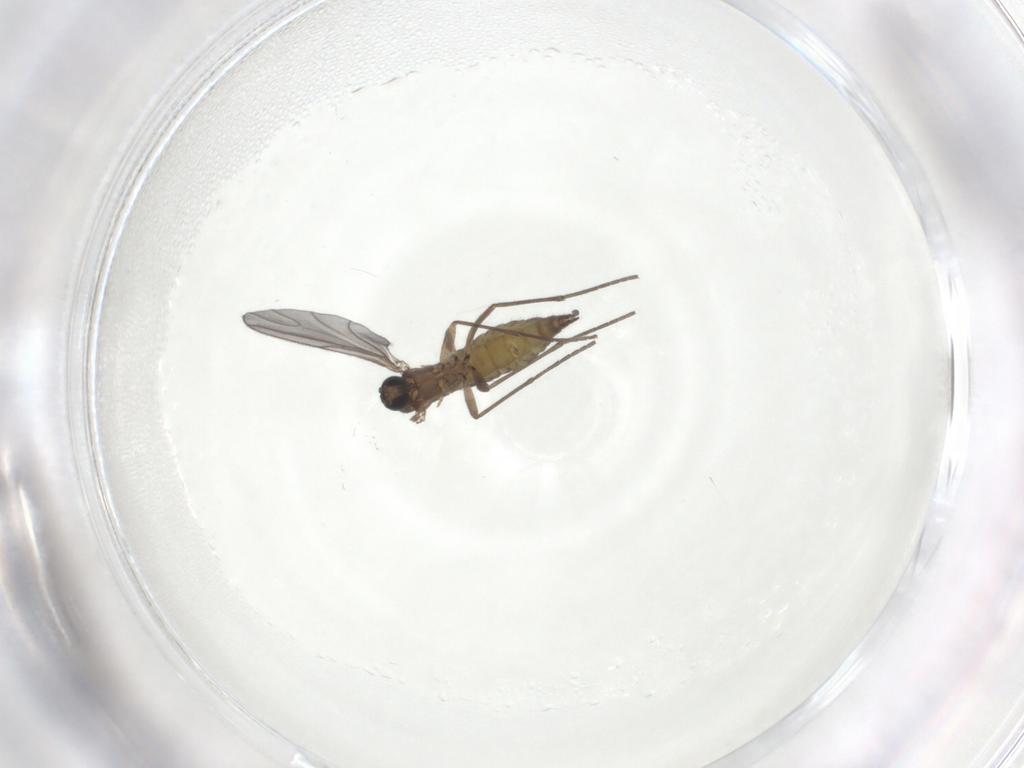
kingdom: Animalia
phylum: Arthropoda
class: Insecta
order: Diptera
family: Sciaridae
